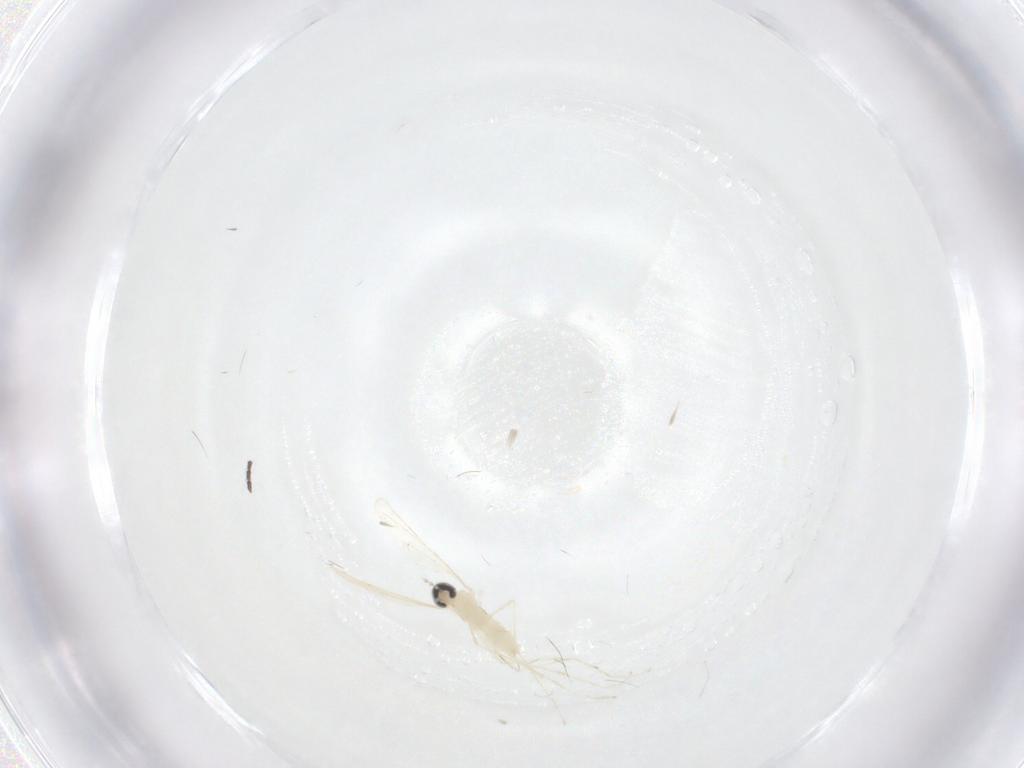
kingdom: Animalia
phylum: Arthropoda
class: Insecta
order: Diptera
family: Cecidomyiidae
